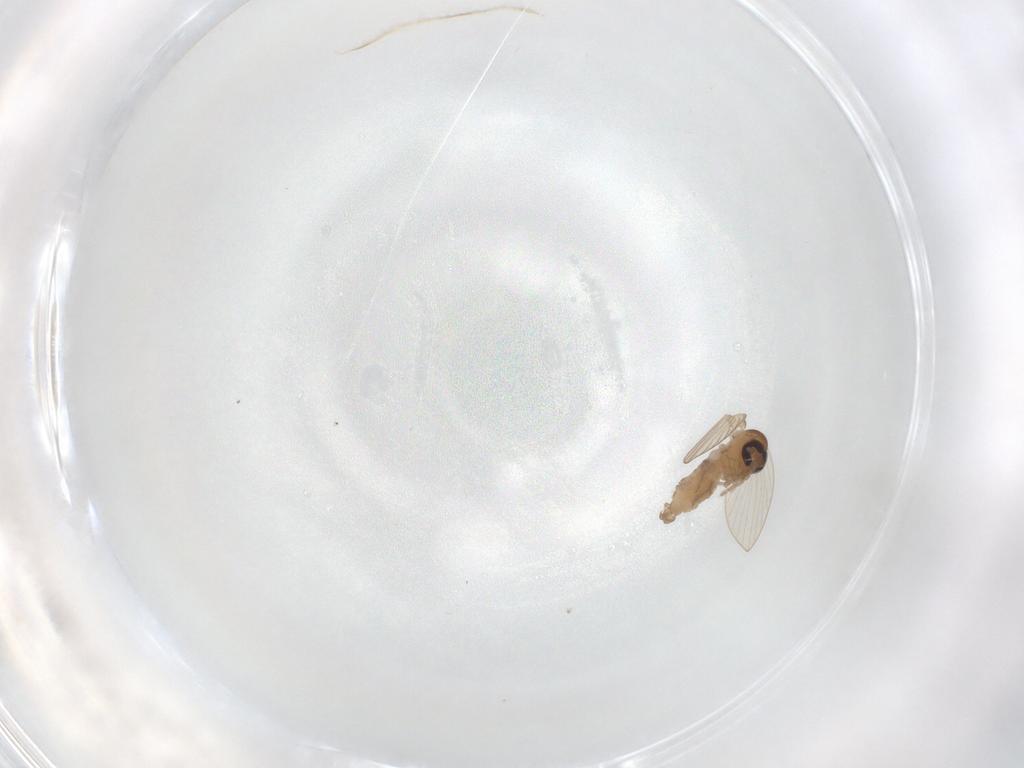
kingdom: Animalia
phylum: Arthropoda
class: Insecta
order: Diptera
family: Psychodidae
